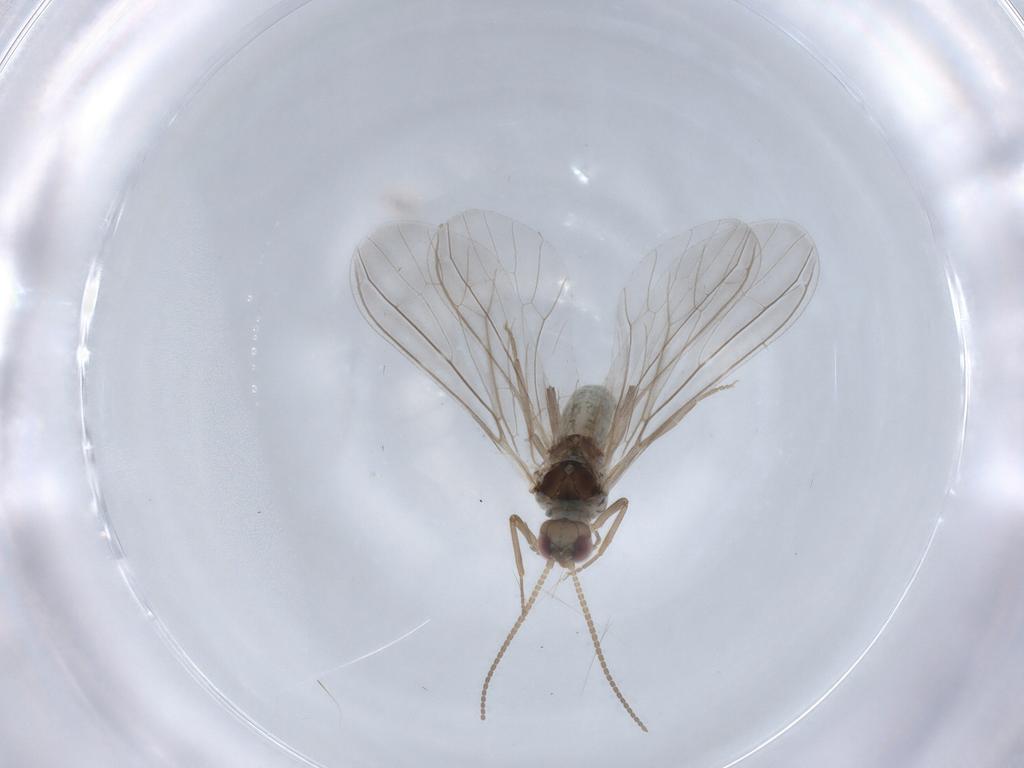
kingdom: Animalia
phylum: Arthropoda
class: Insecta
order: Neuroptera
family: Coniopterygidae
